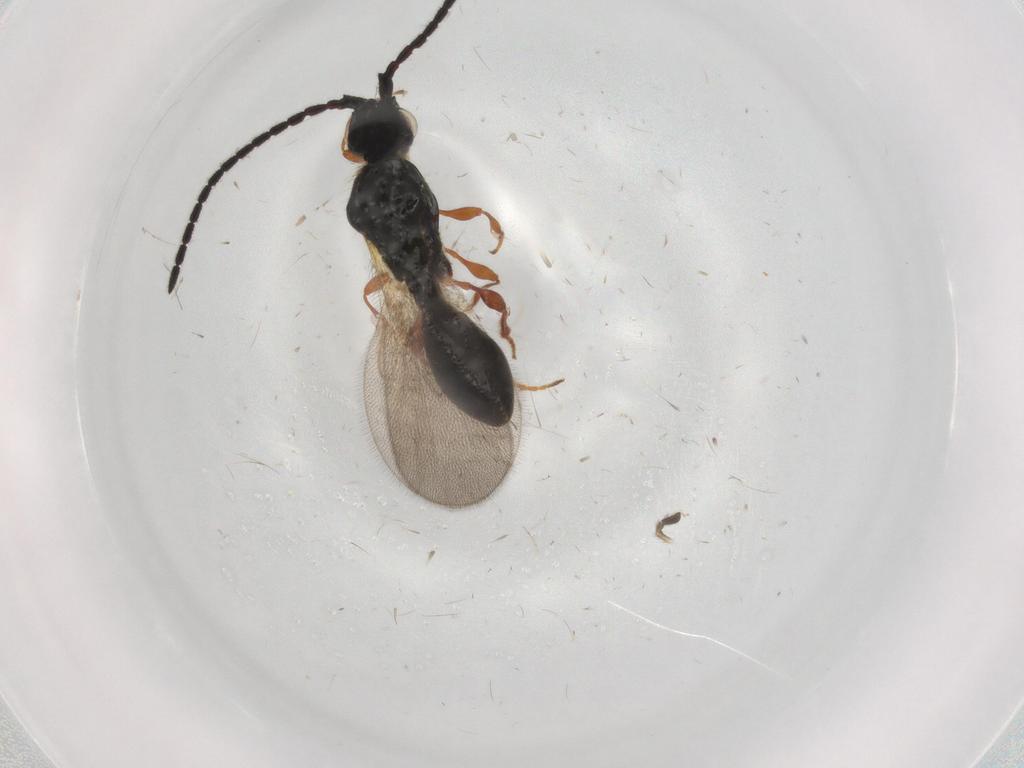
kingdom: Animalia
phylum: Arthropoda
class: Insecta
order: Hymenoptera
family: Diapriidae
